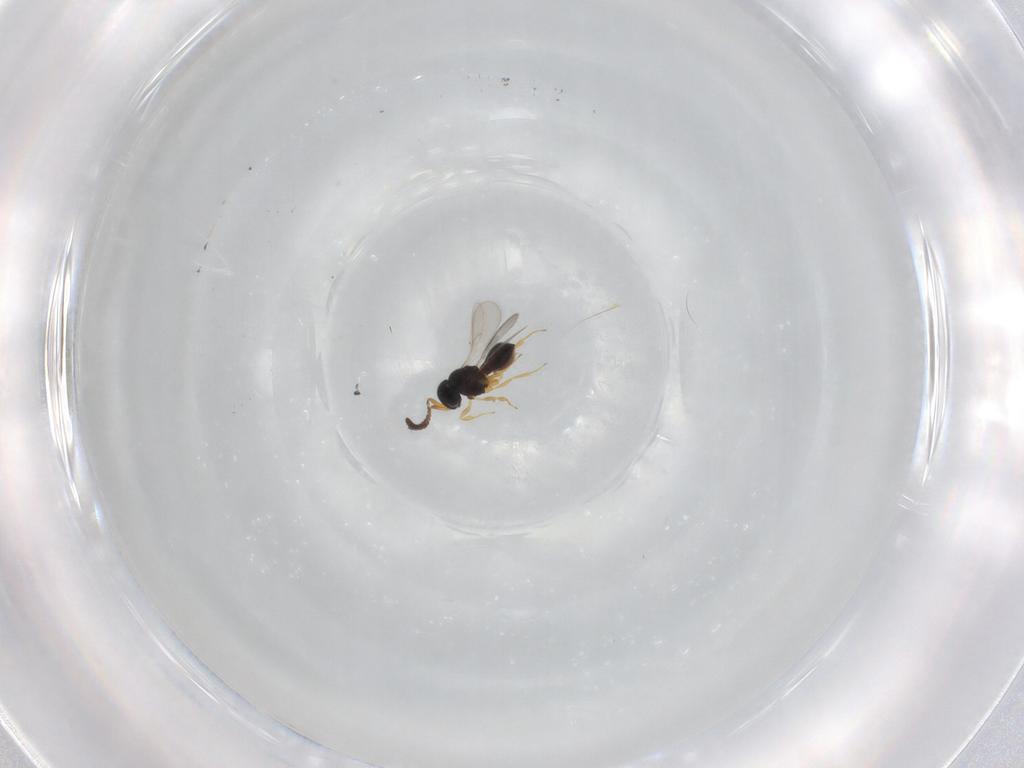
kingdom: Animalia
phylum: Arthropoda
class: Insecta
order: Hymenoptera
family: Scelionidae
